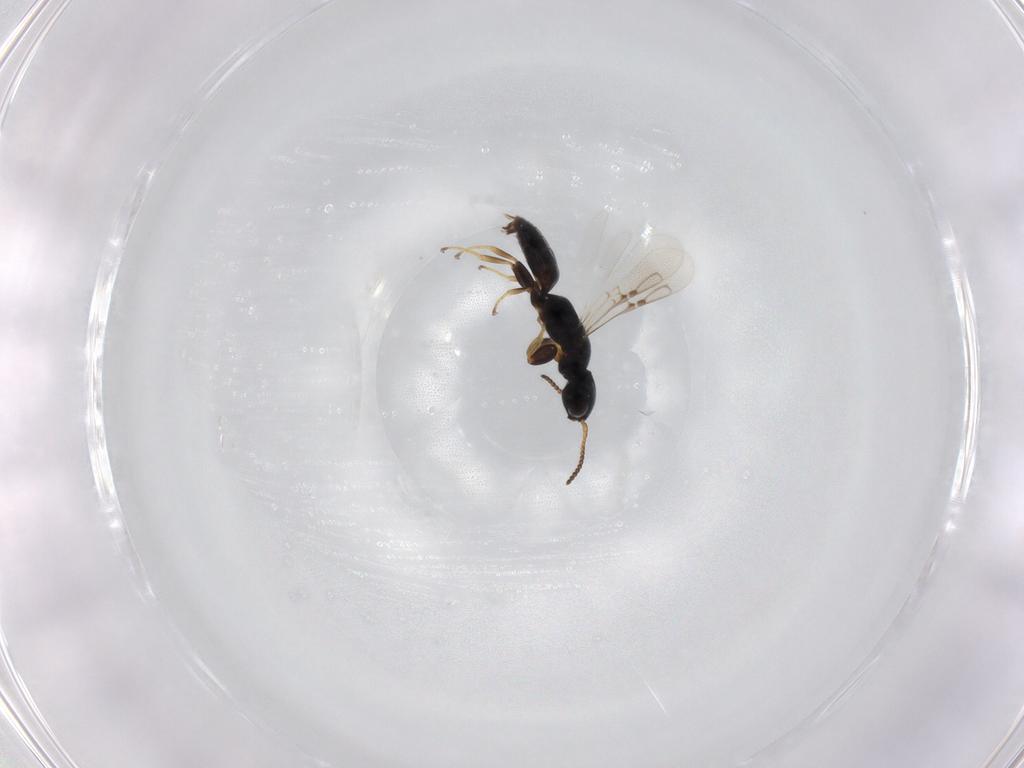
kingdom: Animalia
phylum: Arthropoda
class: Insecta
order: Hymenoptera
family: Bethylidae
